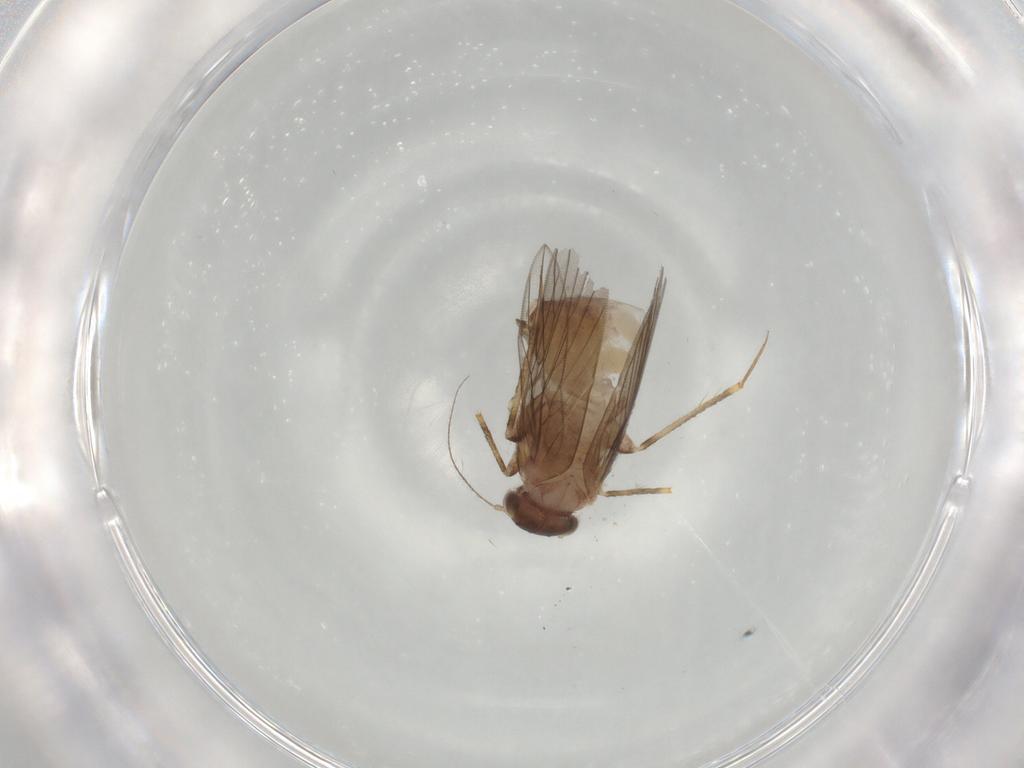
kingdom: Animalia
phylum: Arthropoda
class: Insecta
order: Psocodea
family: Lepidopsocidae
